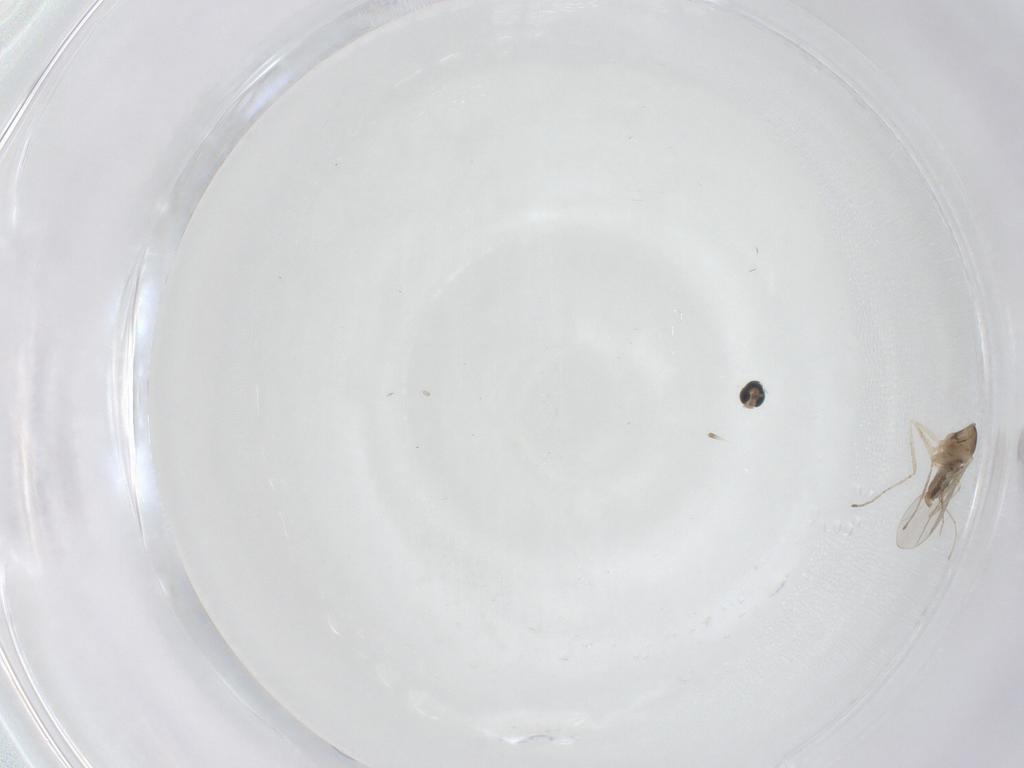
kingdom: Animalia
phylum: Arthropoda
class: Insecta
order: Diptera
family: Cecidomyiidae
